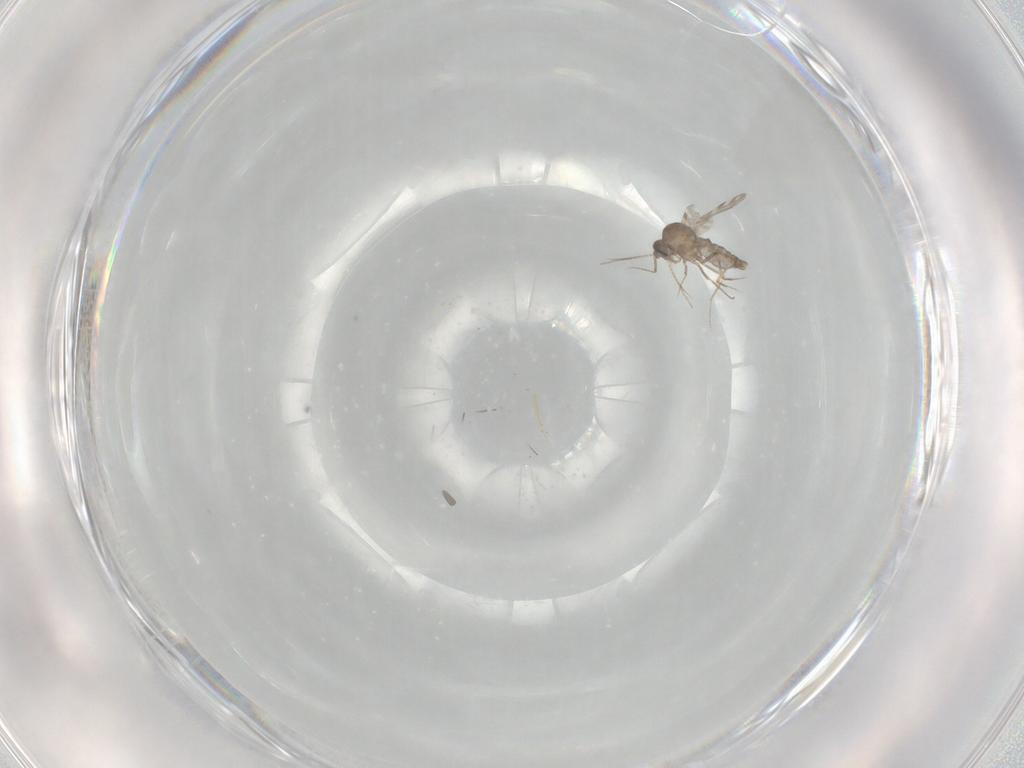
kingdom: Animalia
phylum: Arthropoda
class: Insecta
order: Diptera
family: Ceratopogonidae
